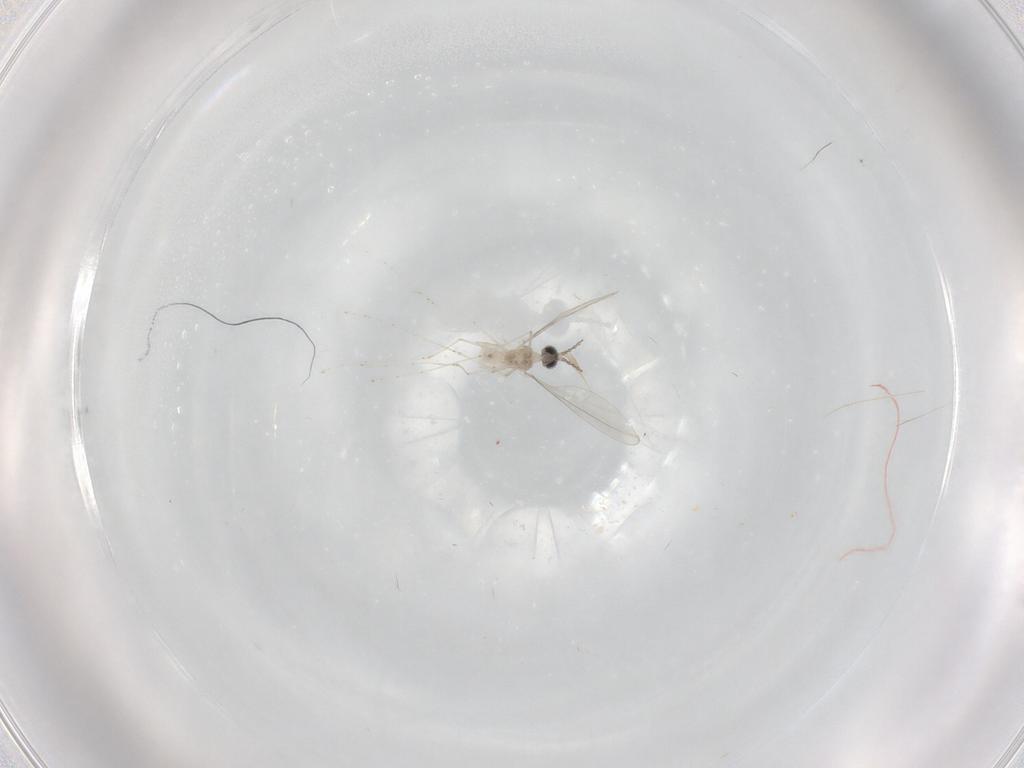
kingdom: Animalia
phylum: Arthropoda
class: Insecta
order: Diptera
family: Cecidomyiidae
